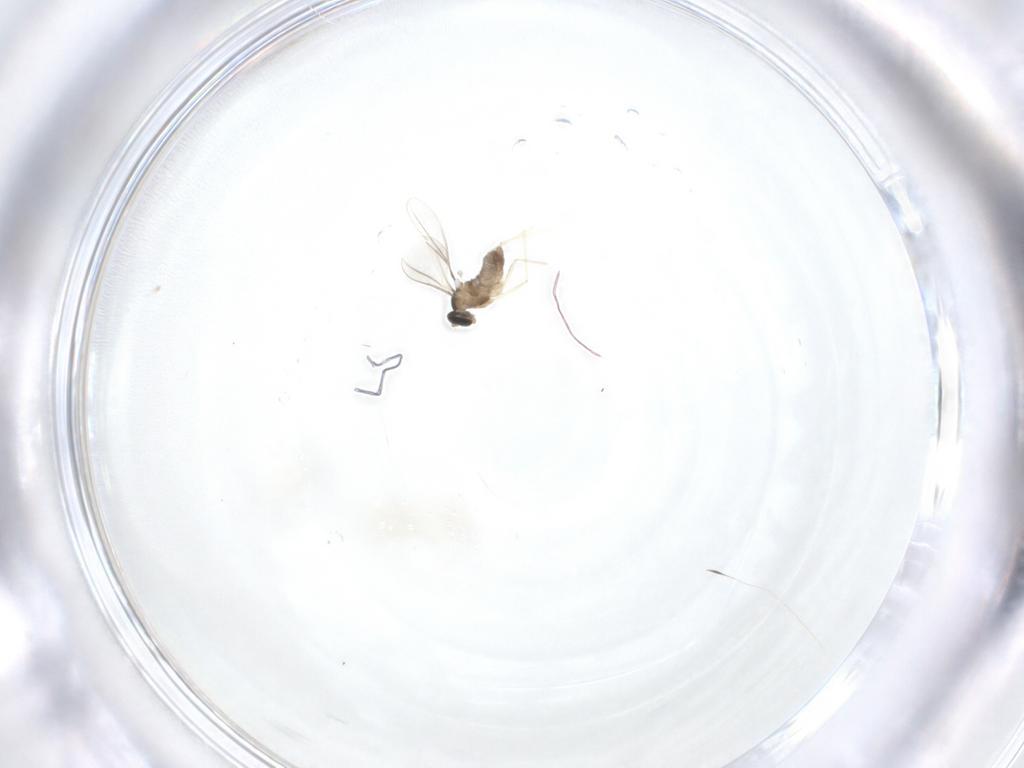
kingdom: Animalia
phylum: Arthropoda
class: Insecta
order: Diptera
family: Cecidomyiidae
